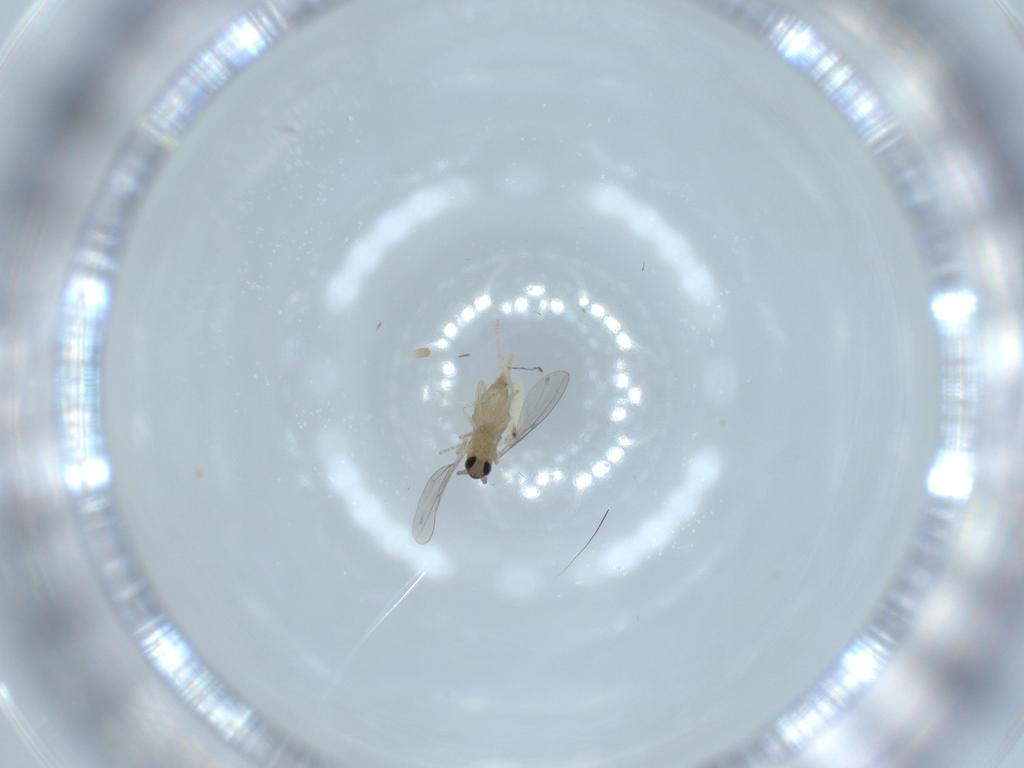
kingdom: Animalia
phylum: Arthropoda
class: Insecta
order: Diptera
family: Cecidomyiidae
